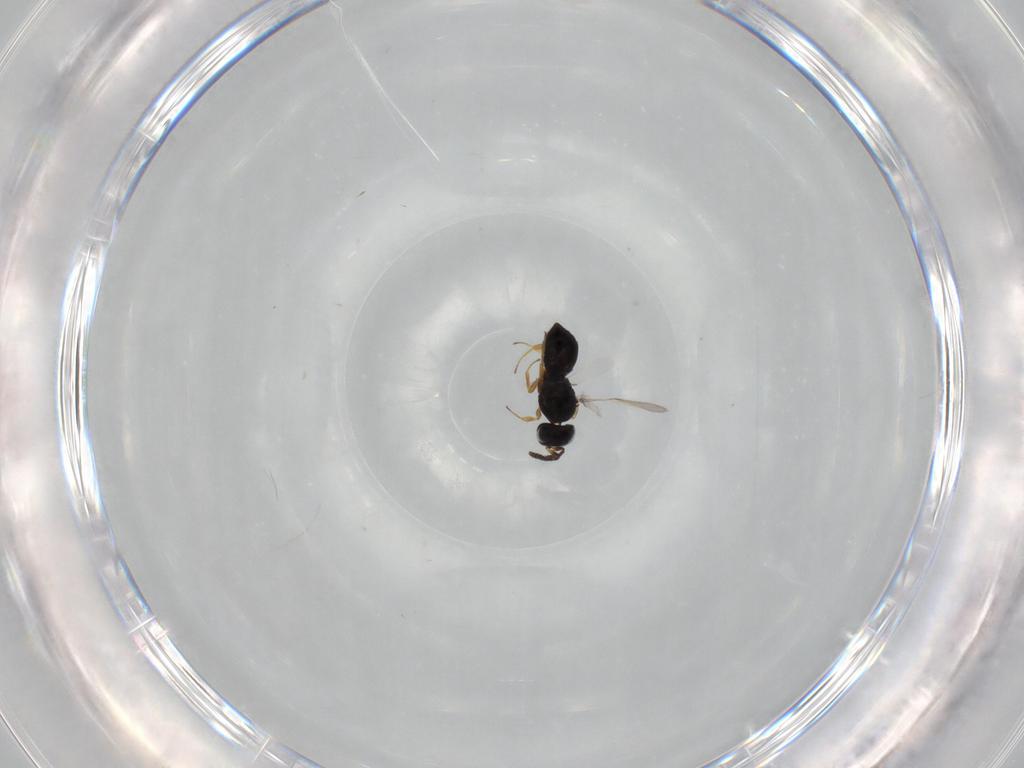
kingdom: Animalia
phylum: Arthropoda
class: Insecta
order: Hymenoptera
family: Scelionidae
